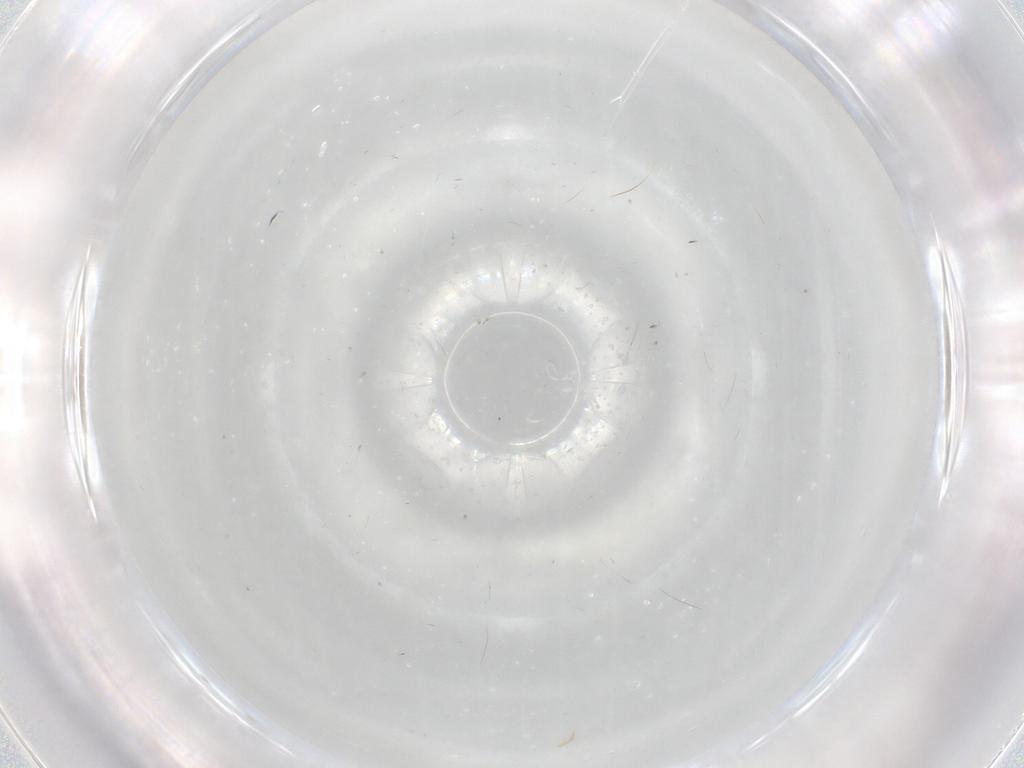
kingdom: Animalia
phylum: Arthropoda
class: Insecta
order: Diptera
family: Cecidomyiidae
